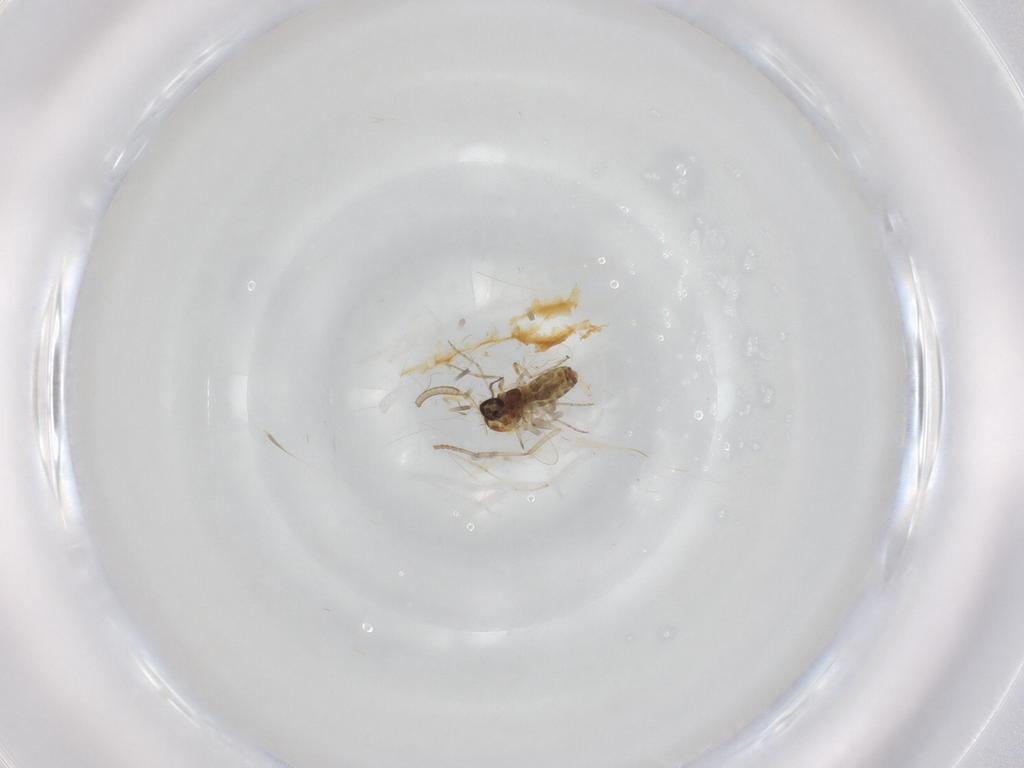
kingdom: Animalia
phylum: Arthropoda
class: Insecta
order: Diptera
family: Psychodidae
